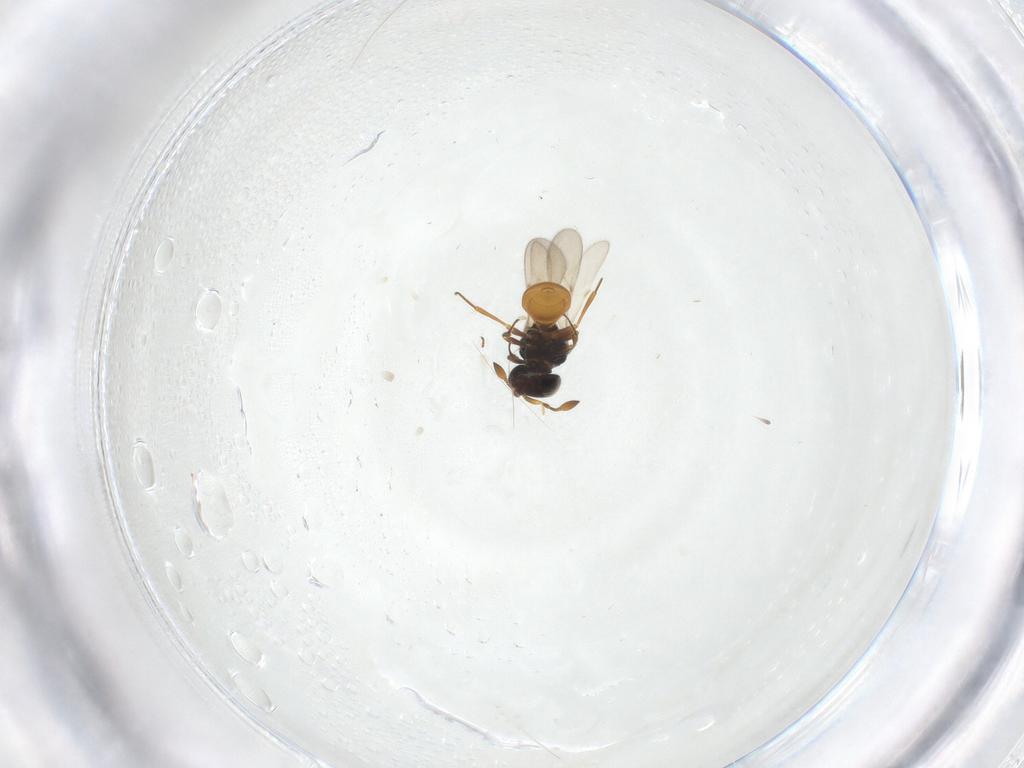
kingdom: Animalia
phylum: Arthropoda
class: Insecta
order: Hymenoptera
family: Scelionidae
